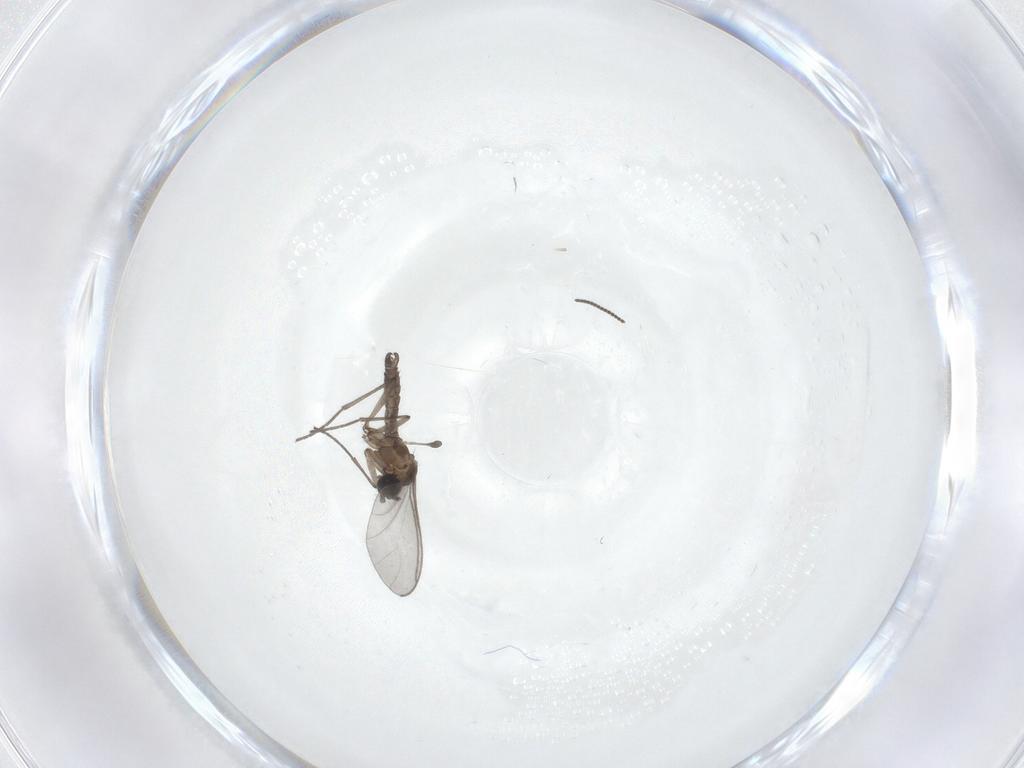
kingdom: Animalia
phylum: Arthropoda
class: Insecta
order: Diptera
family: Sciaridae
